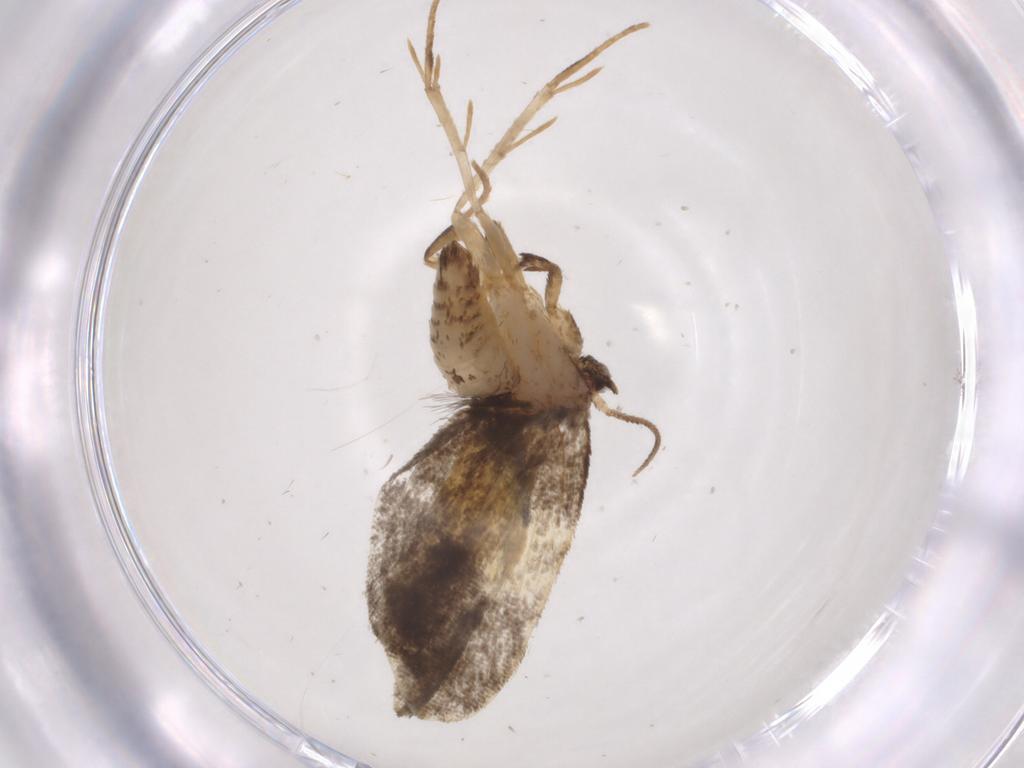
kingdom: Animalia
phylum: Arthropoda
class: Insecta
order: Lepidoptera
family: Psychidae
